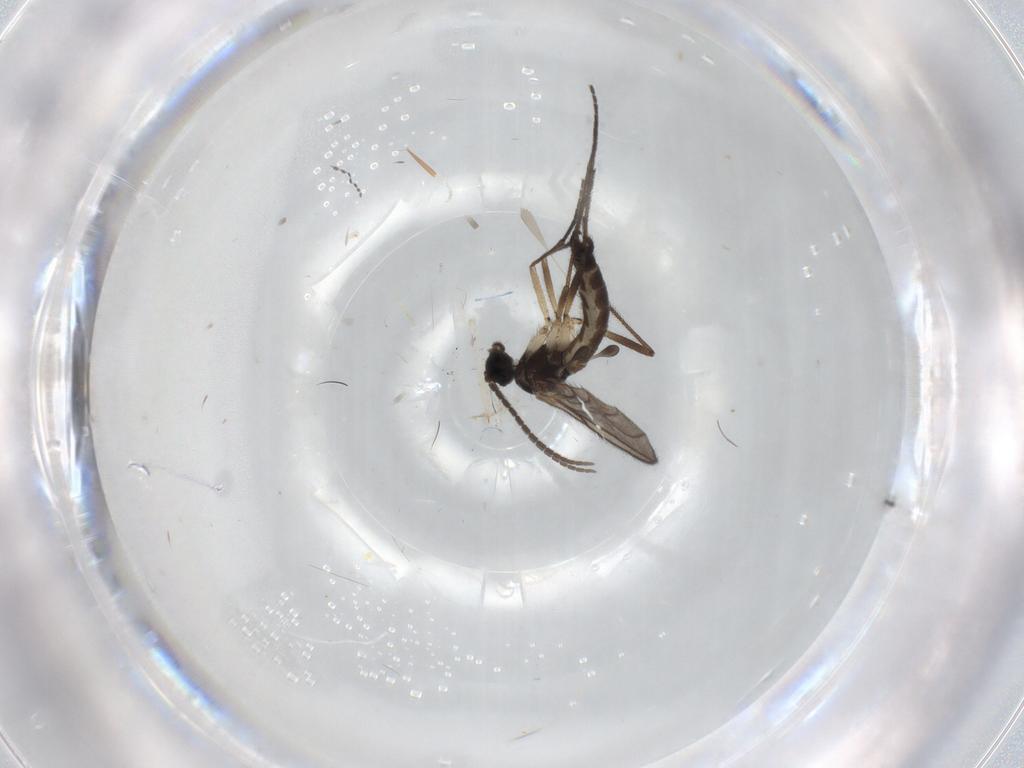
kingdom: Animalia
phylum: Arthropoda
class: Insecta
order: Diptera
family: Sciaridae
